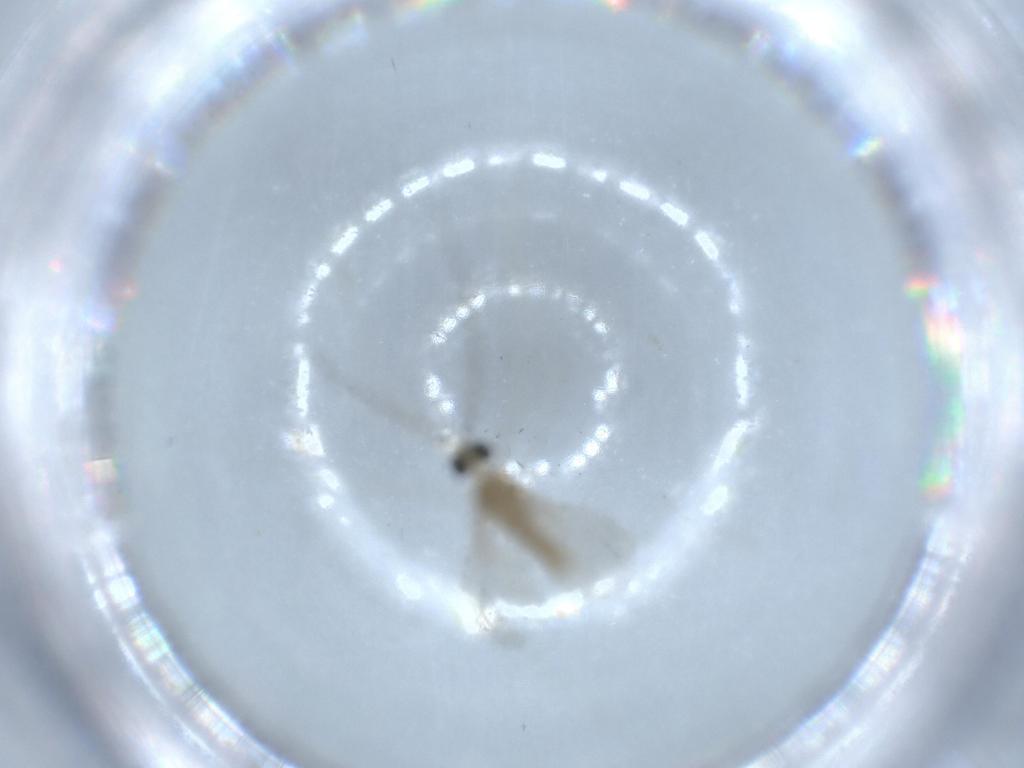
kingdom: Animalia
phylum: Arthropoda
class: Insecta
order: Diptera
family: Cecidomyiidae
